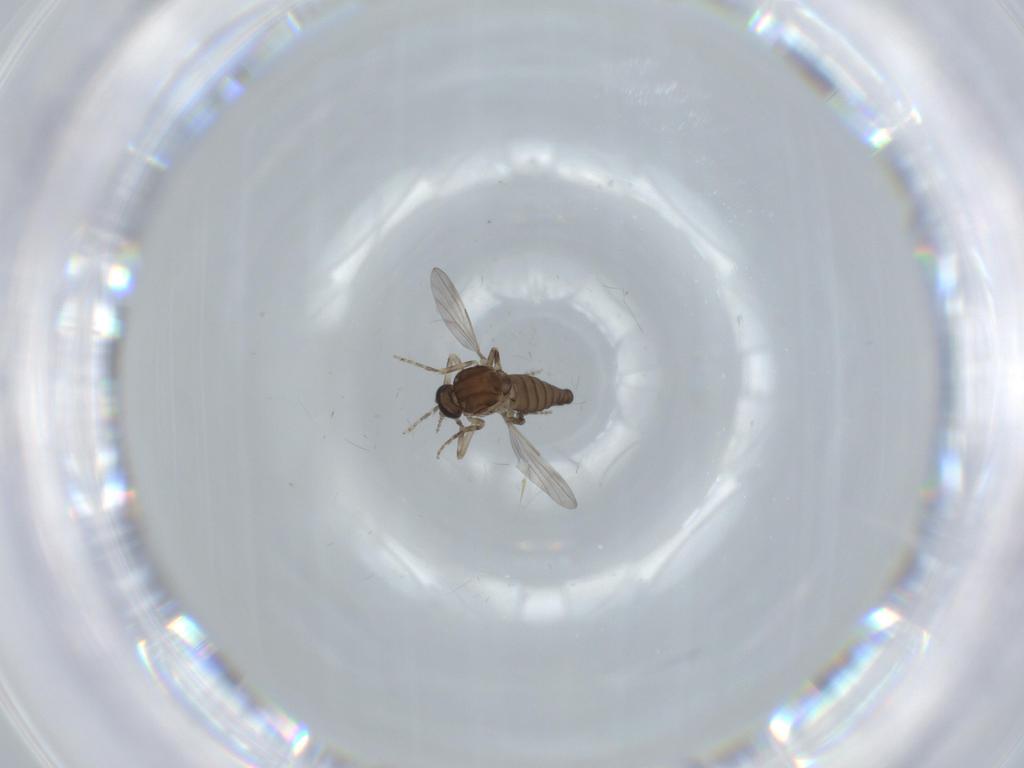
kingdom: Animalia
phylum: Arthropoda
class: Insecta
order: Diptera
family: Ceratopogonidae
